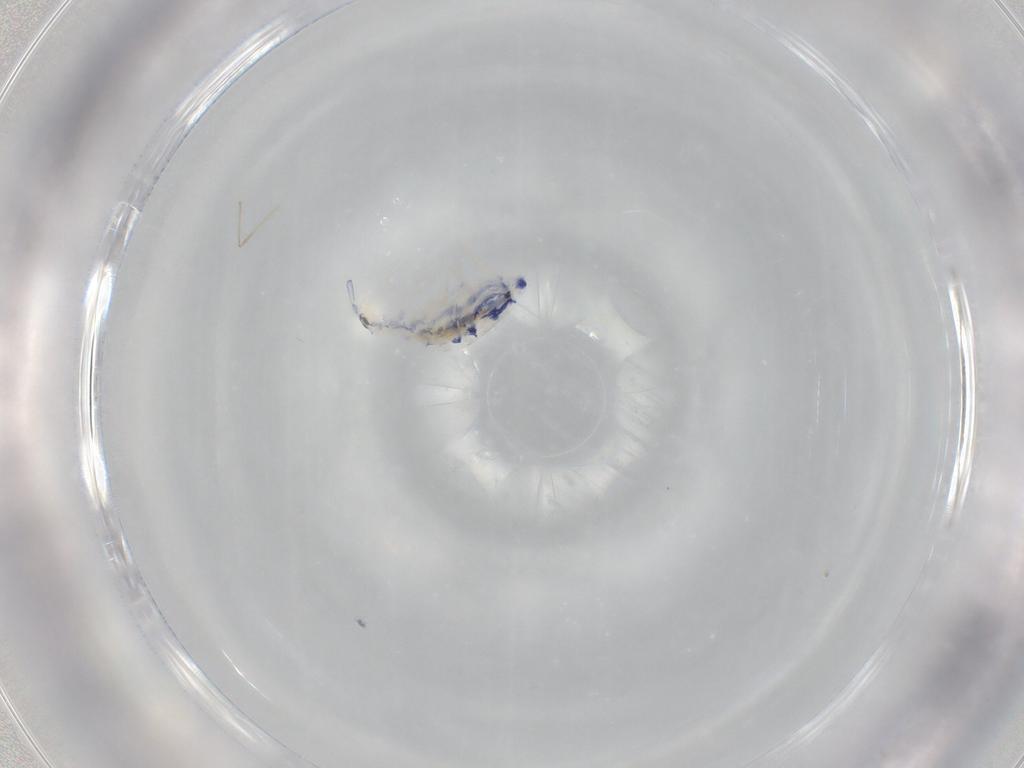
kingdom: Animalia
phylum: Arthropoda
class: Collembola
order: Entomobryomorpha
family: Entomobryidae
